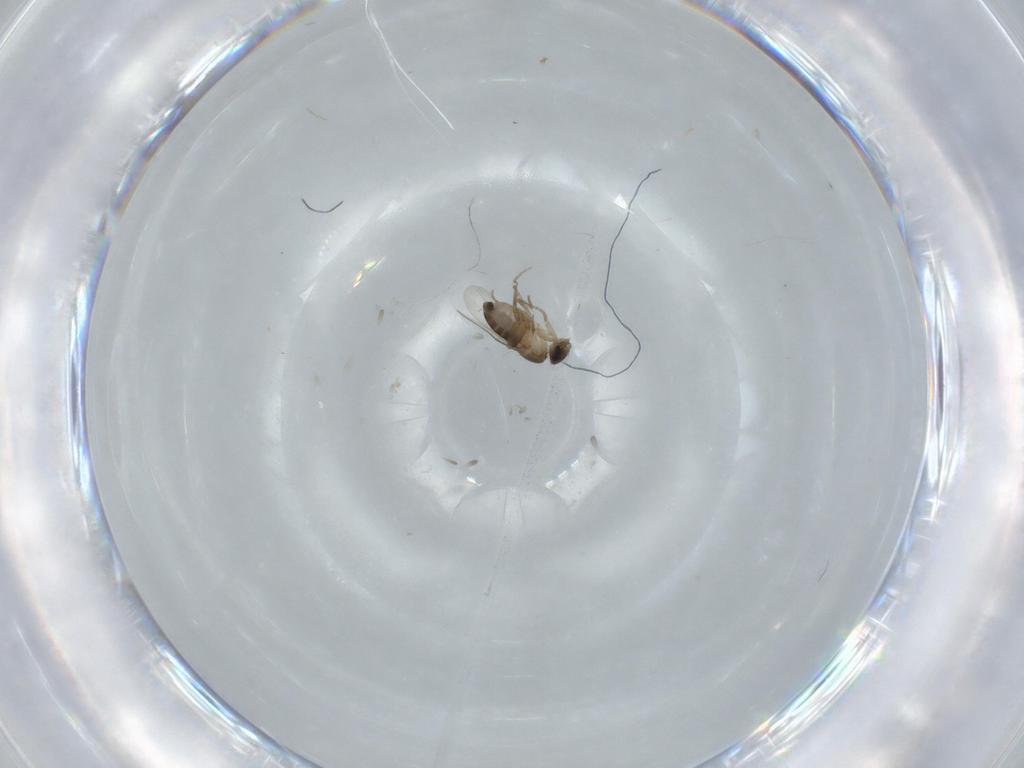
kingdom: Animalia
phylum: Arthropoda
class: Insecta
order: Diptera
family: Phoridae
